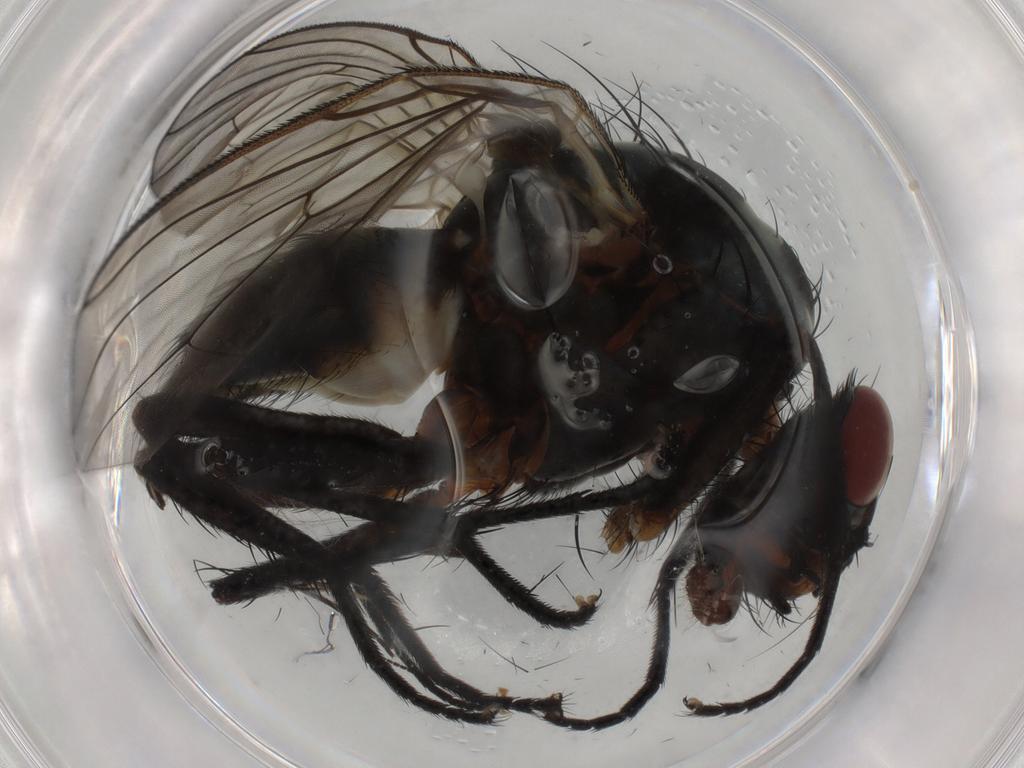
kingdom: Animalia
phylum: Arthropoda
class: Insecta
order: Diptera
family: Anthomyiidae
